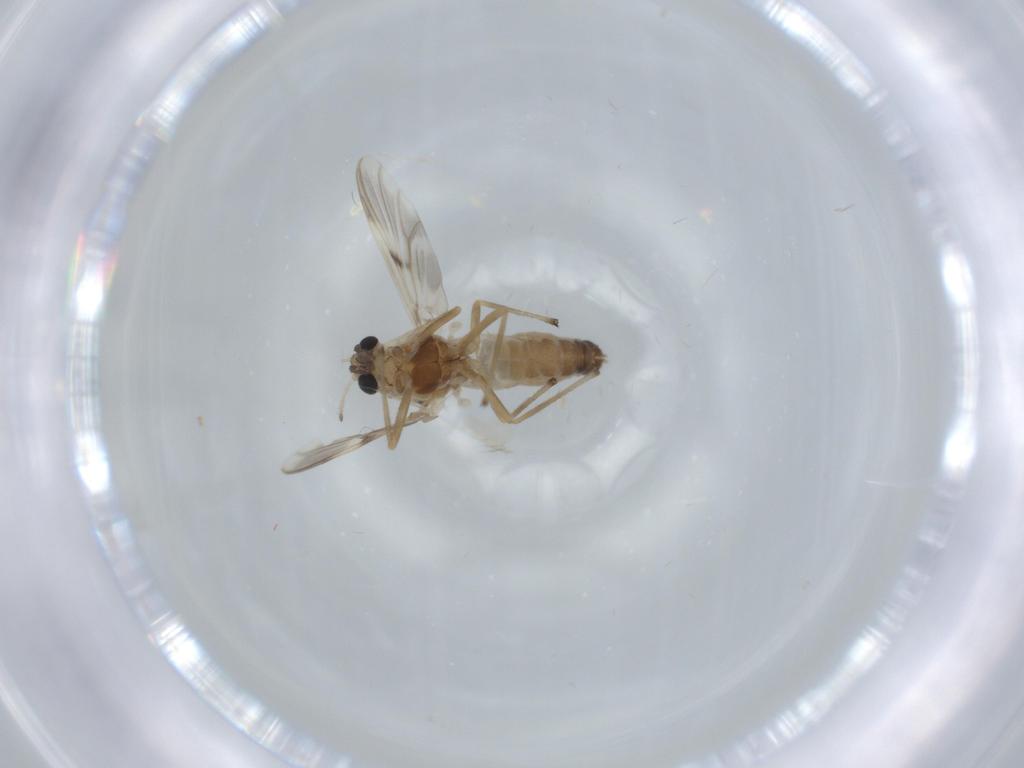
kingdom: Animalia
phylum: Arthropoda
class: Insecta
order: Diptera
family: Chironomidae
